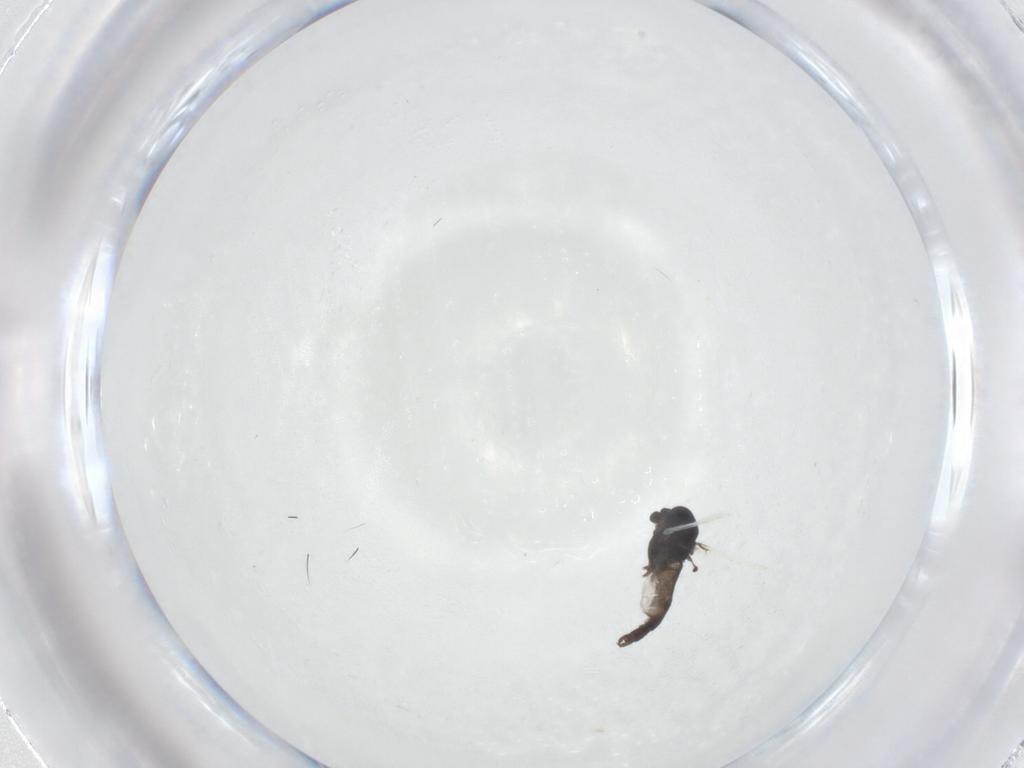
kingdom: Animalia
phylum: Arthropoda
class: Insecta
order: Diptera
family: Chironomidae
